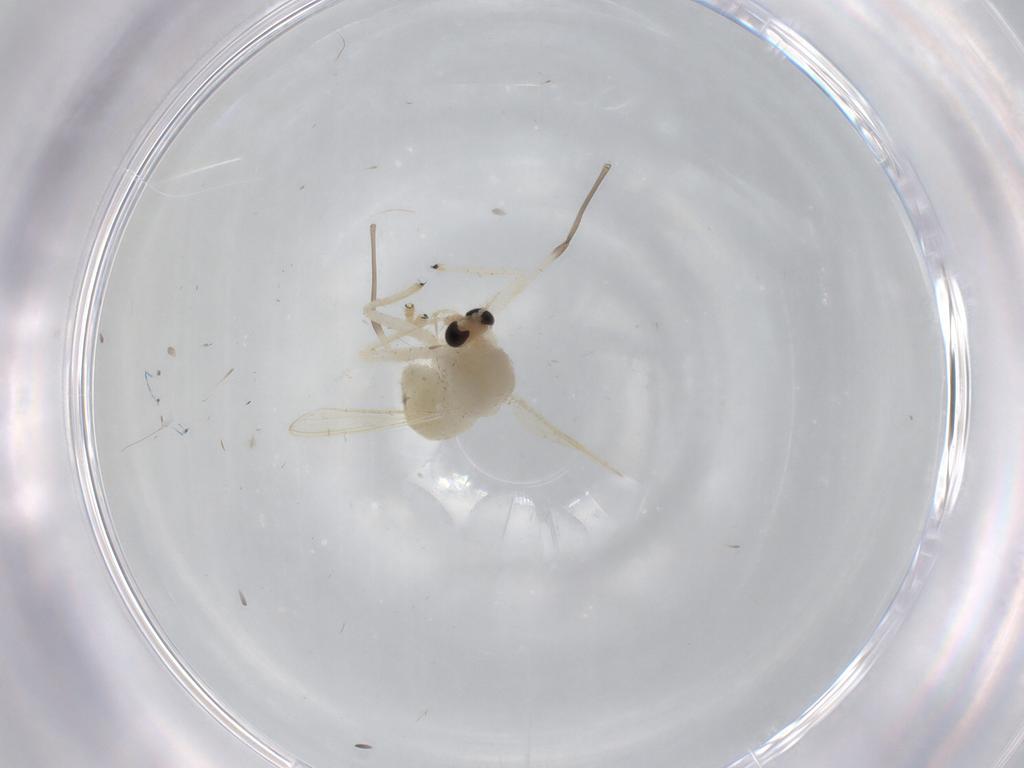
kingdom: Animalia
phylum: Arthropoda
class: Insecta
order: Diptera
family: Chironomidae
